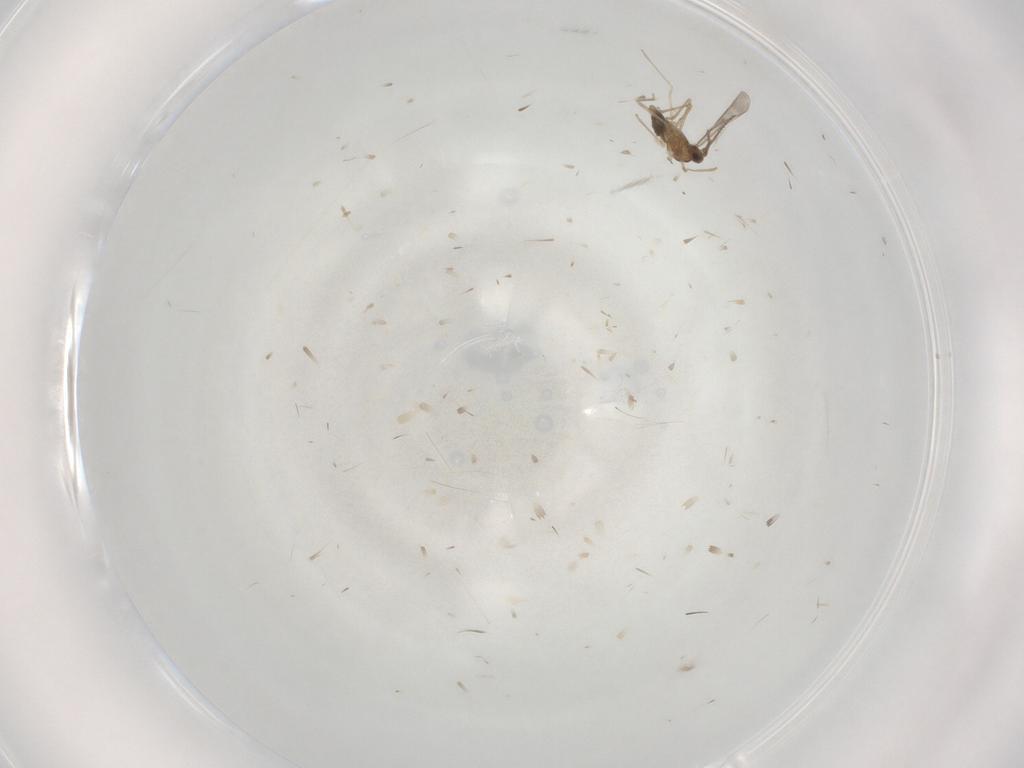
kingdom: Animalia
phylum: Arthropoda
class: Insecta
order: Diptera
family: Cecidomyiidae
